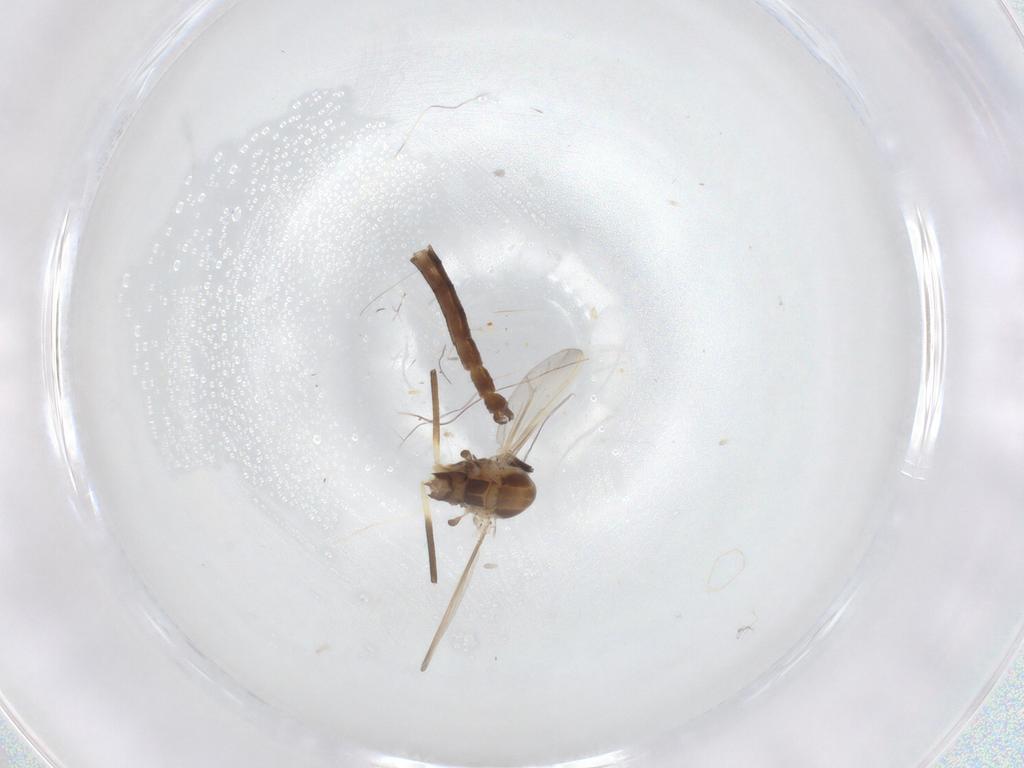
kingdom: Animalia
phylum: Arthropoda
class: Insecta
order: Diptera
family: Chironomidae
